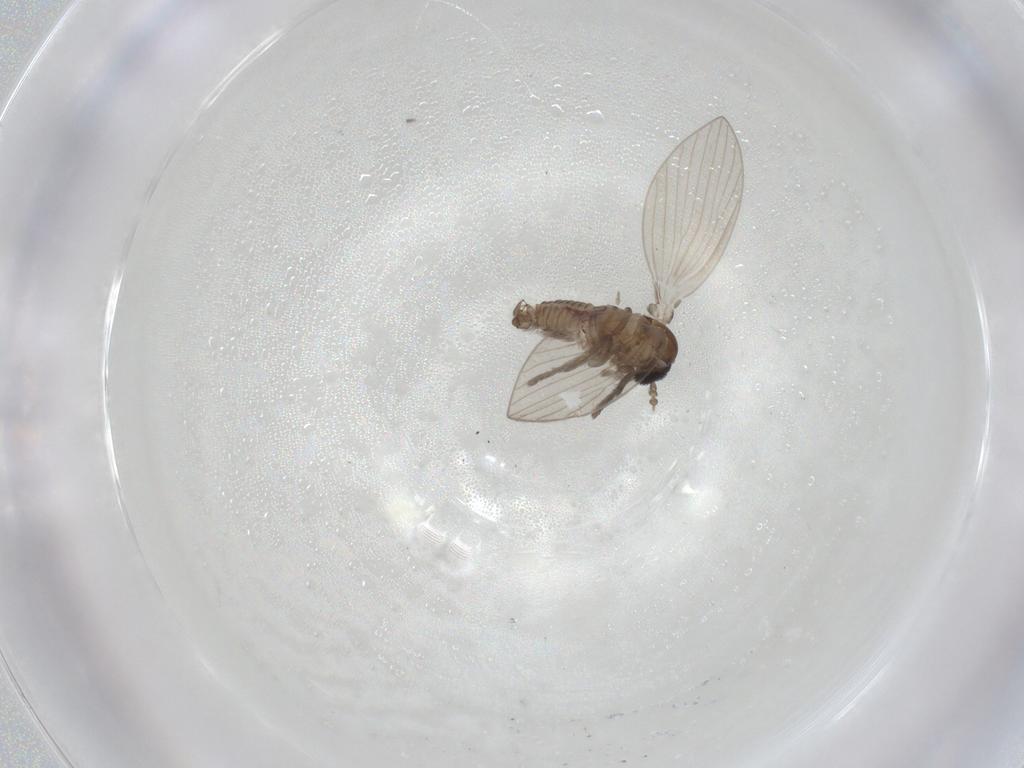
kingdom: Animalia
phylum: Arthropoda
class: Insecta
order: Diptera
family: Psychodidae
